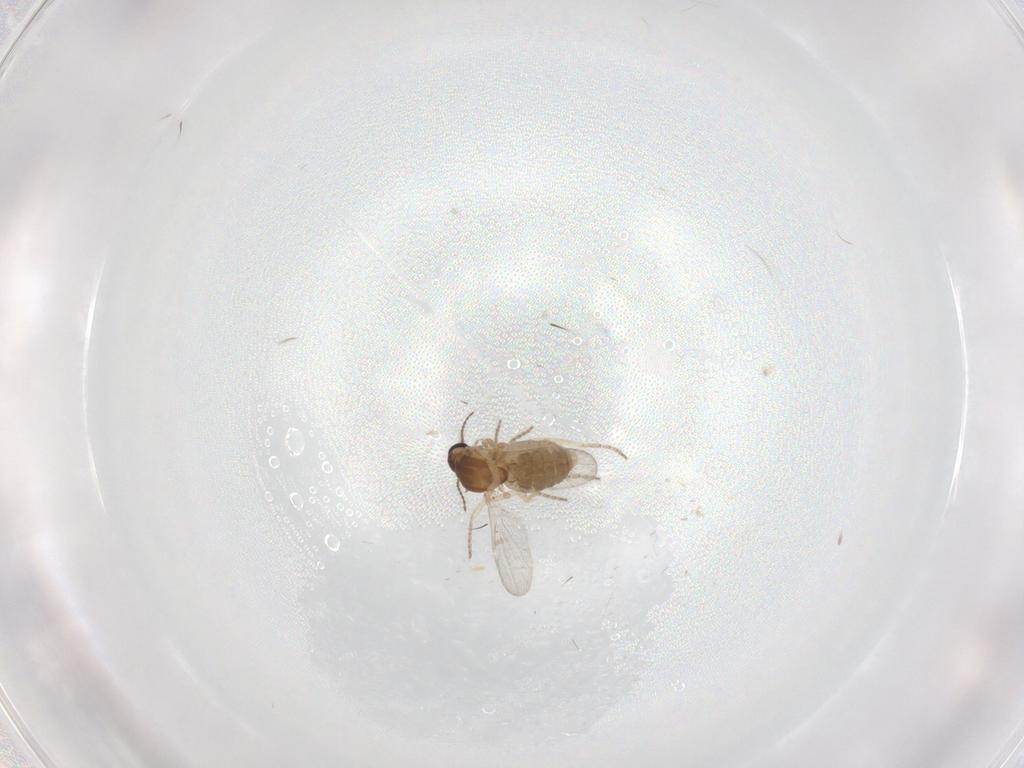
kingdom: Animalia
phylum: Arthropoda
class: Insecta
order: Diptera
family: Ceratopogonidae
